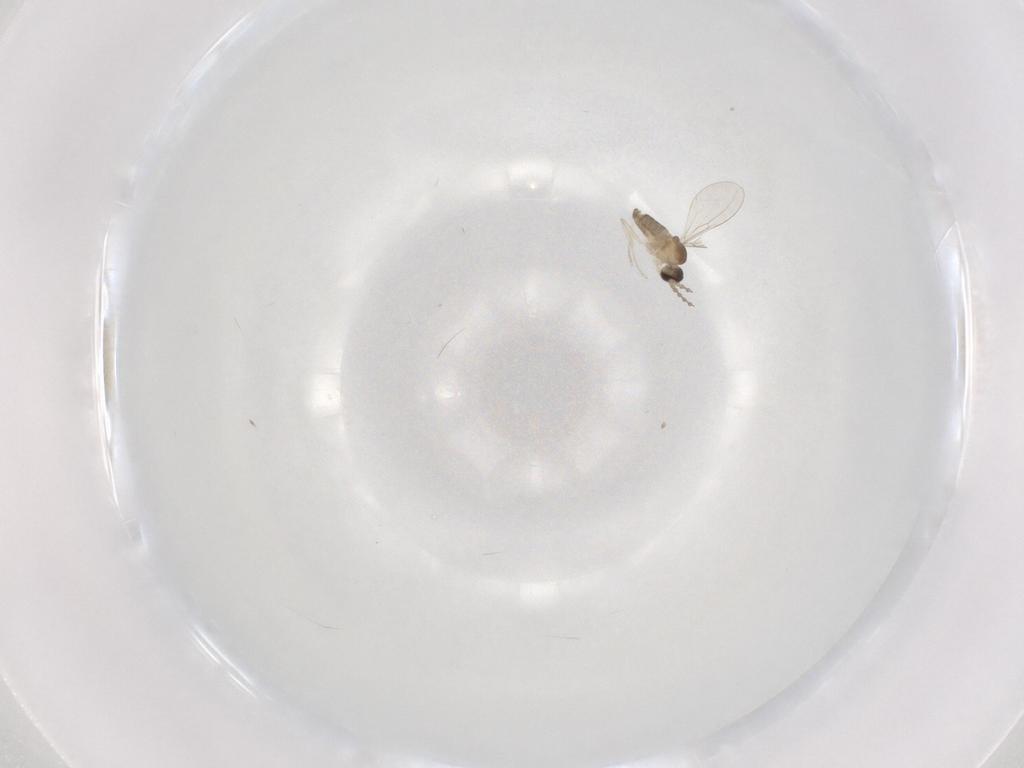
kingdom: Animalia
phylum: Arthropoda
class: Insecta
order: Diptera
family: Cecidomyiidae
